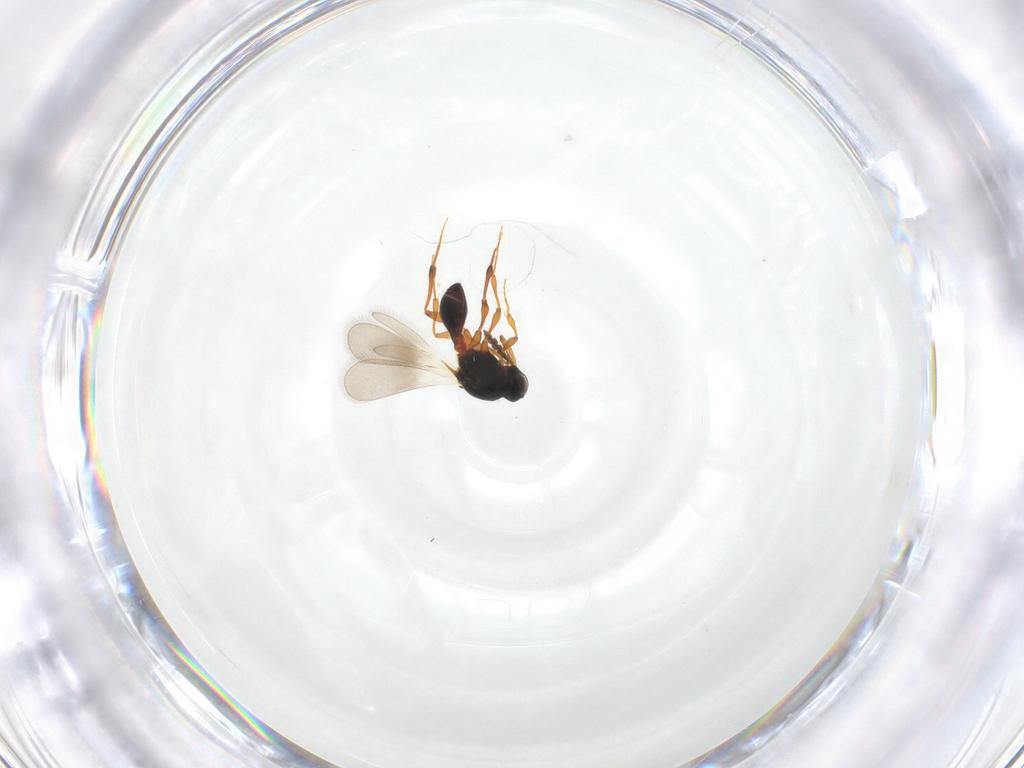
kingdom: Animalia
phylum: Arthropoda
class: Insecta
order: Hymenoptera
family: Platygastridae
